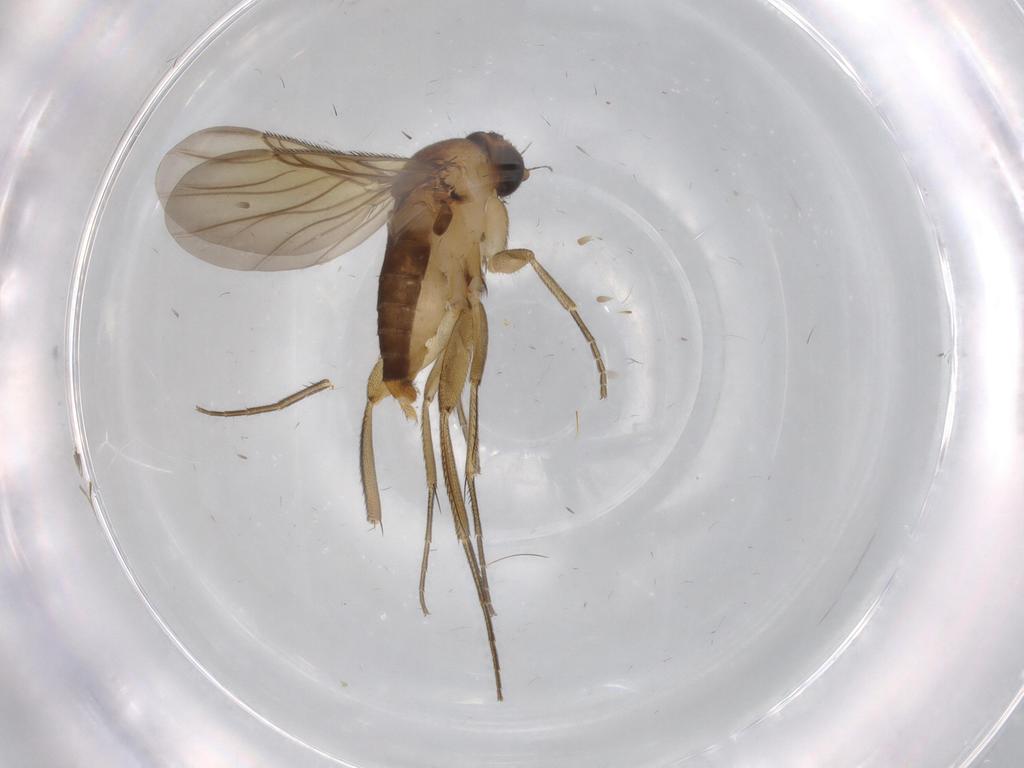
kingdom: Animalia
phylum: Arthropoda
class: Insecta
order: Diptera
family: Phoridae
